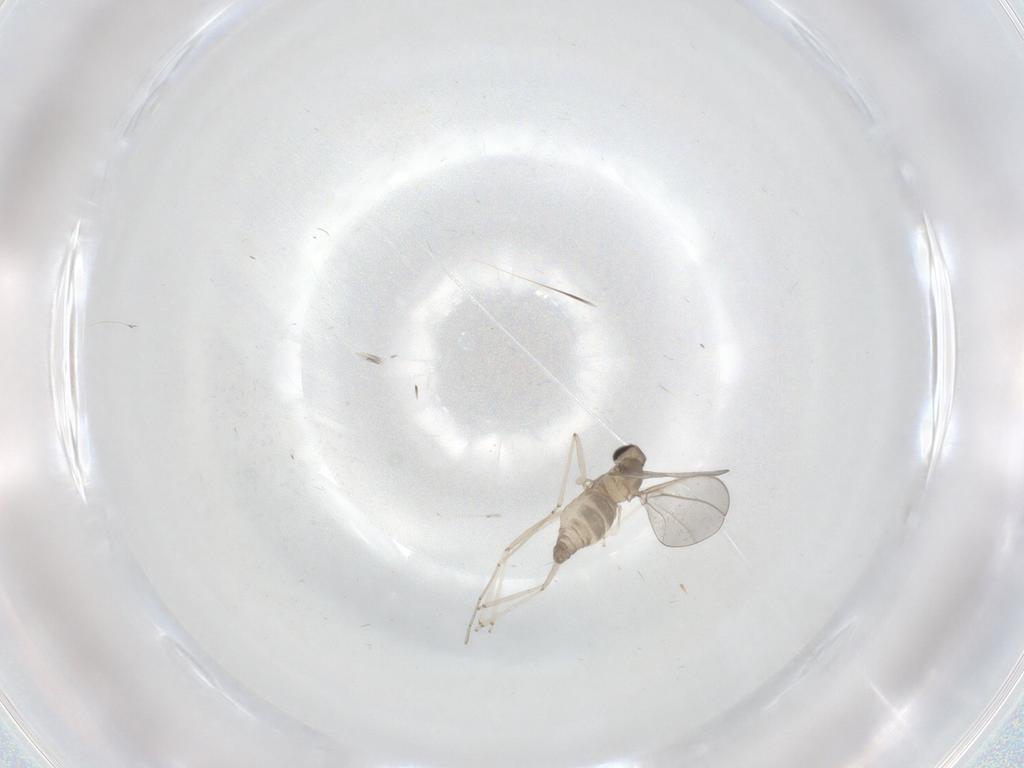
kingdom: Animalia
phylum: Arthropoda
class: Insecta
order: Diptera
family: Cecidomyiidae
